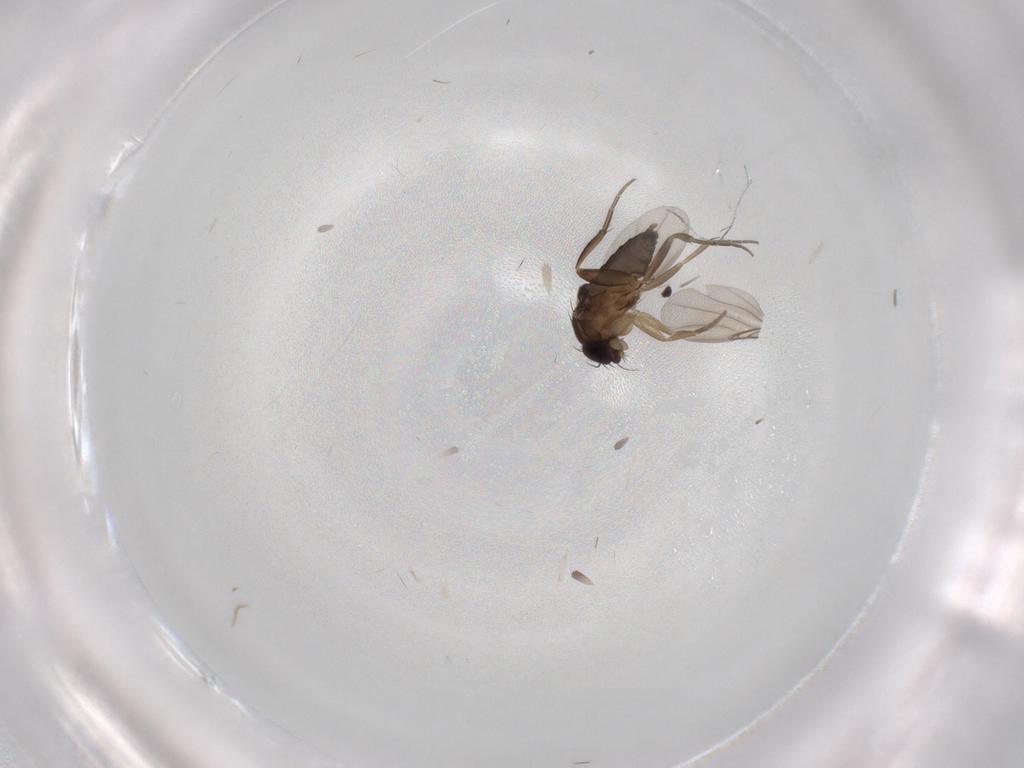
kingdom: Animalia
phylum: Arthropoda
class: Insecta
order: Diptera
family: Phoridae
